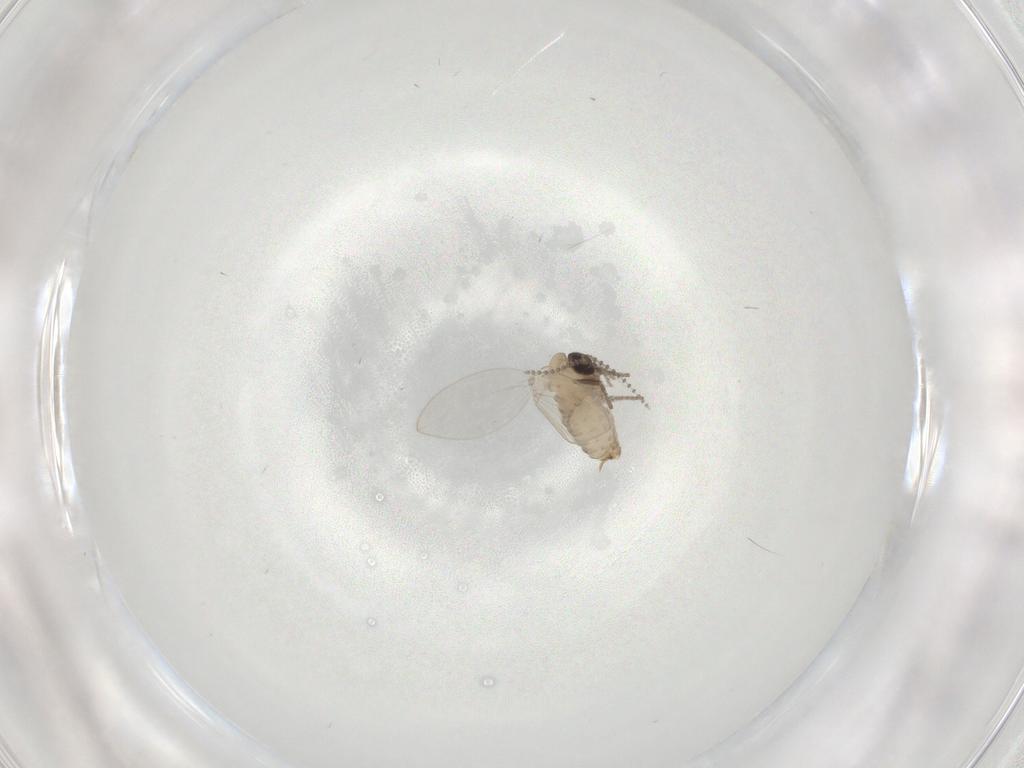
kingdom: Animalia
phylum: Arthropoda
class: Insecta
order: Diptera
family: Psychodidae
